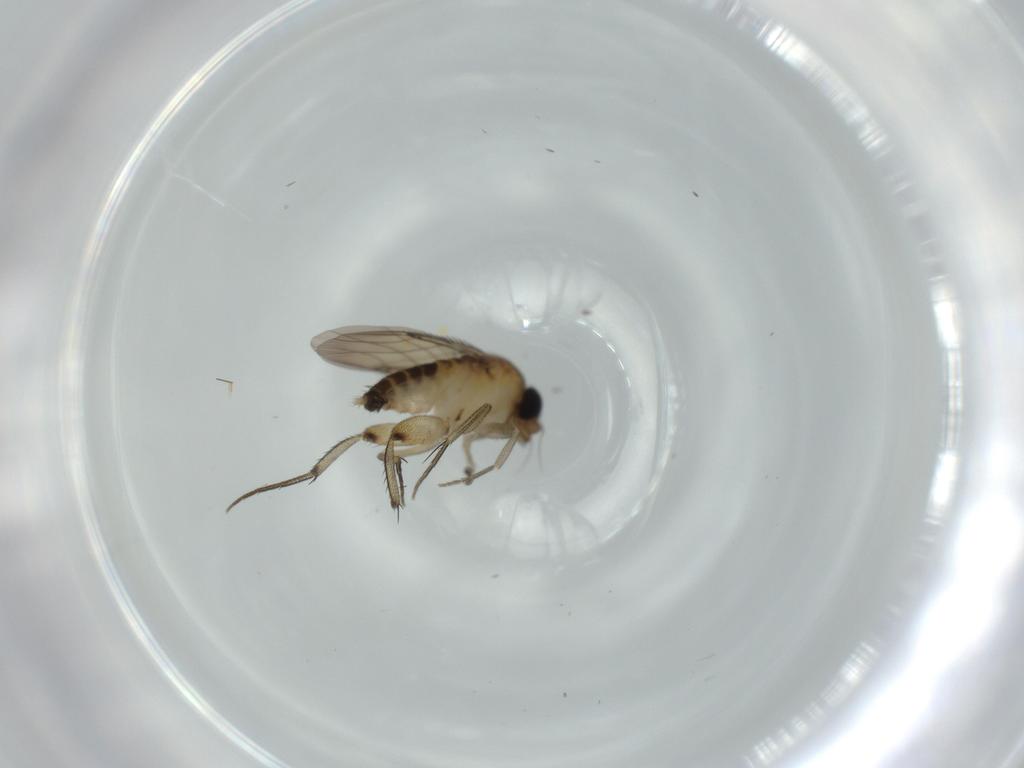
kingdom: Animalia
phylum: Arthropoda
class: Insecta
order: Diptera
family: Phoridae
